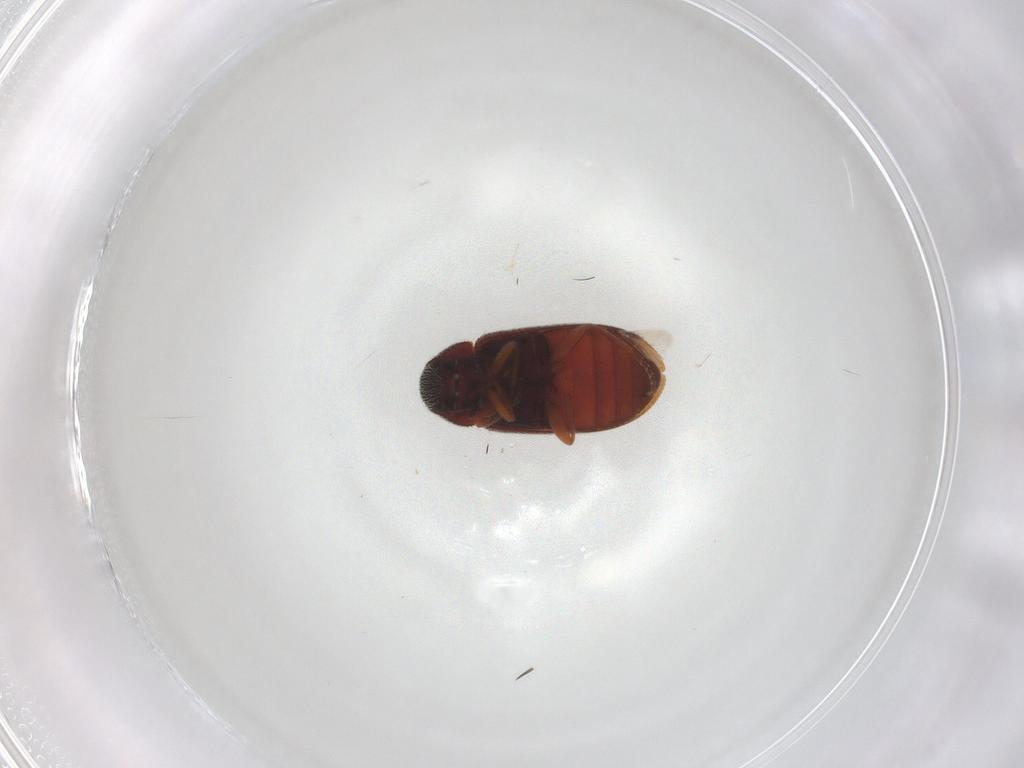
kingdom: Animalia
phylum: Arthropoda
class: Insecta
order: Coleoptera
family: Rhadalidae
